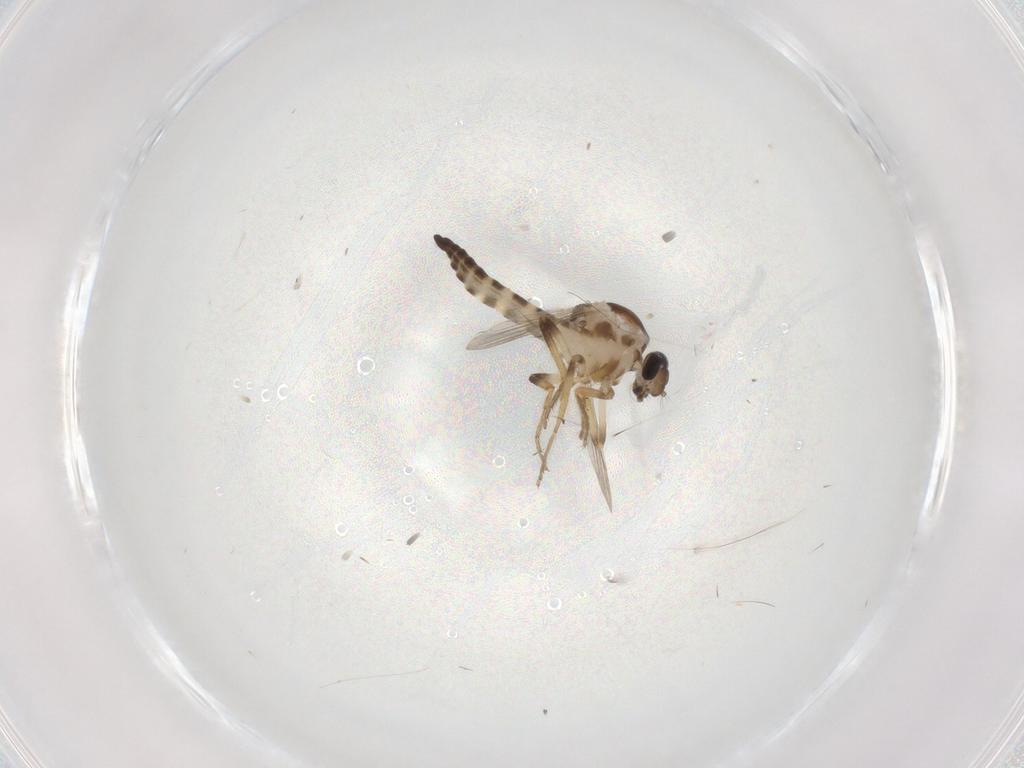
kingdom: Animalia
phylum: Arthropoda
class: Insecta
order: Diptera
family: Ceratopogonidae
